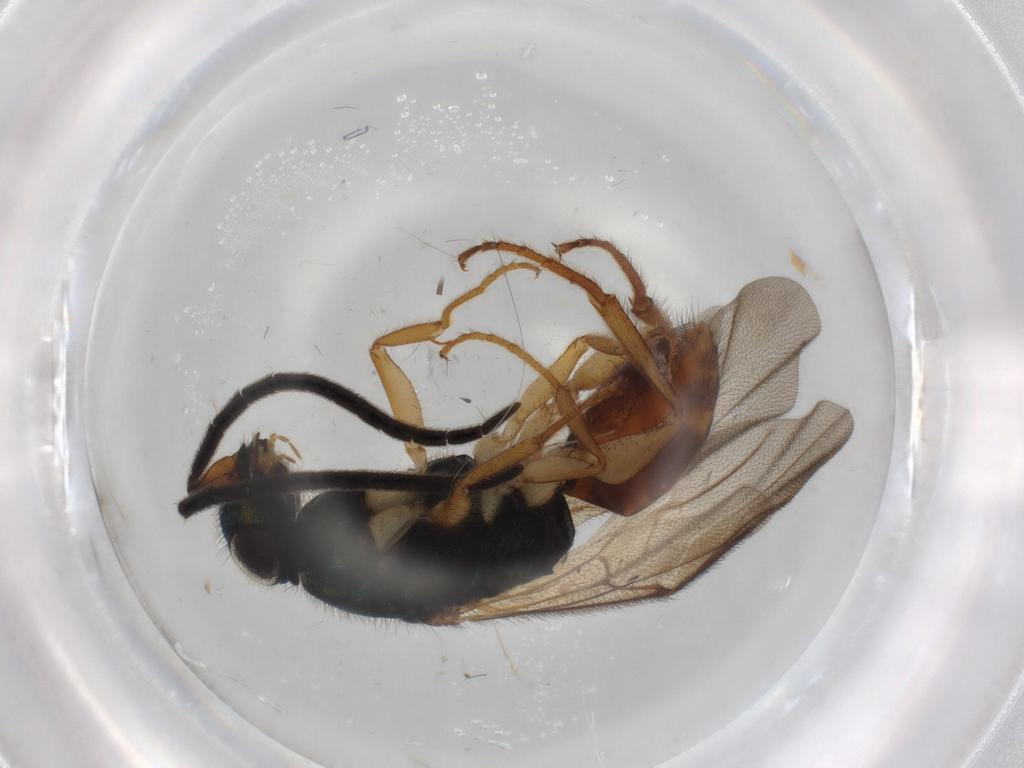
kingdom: Animalia
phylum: Arthropoda
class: Insecta
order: Hymenoptera
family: Chrysididae
